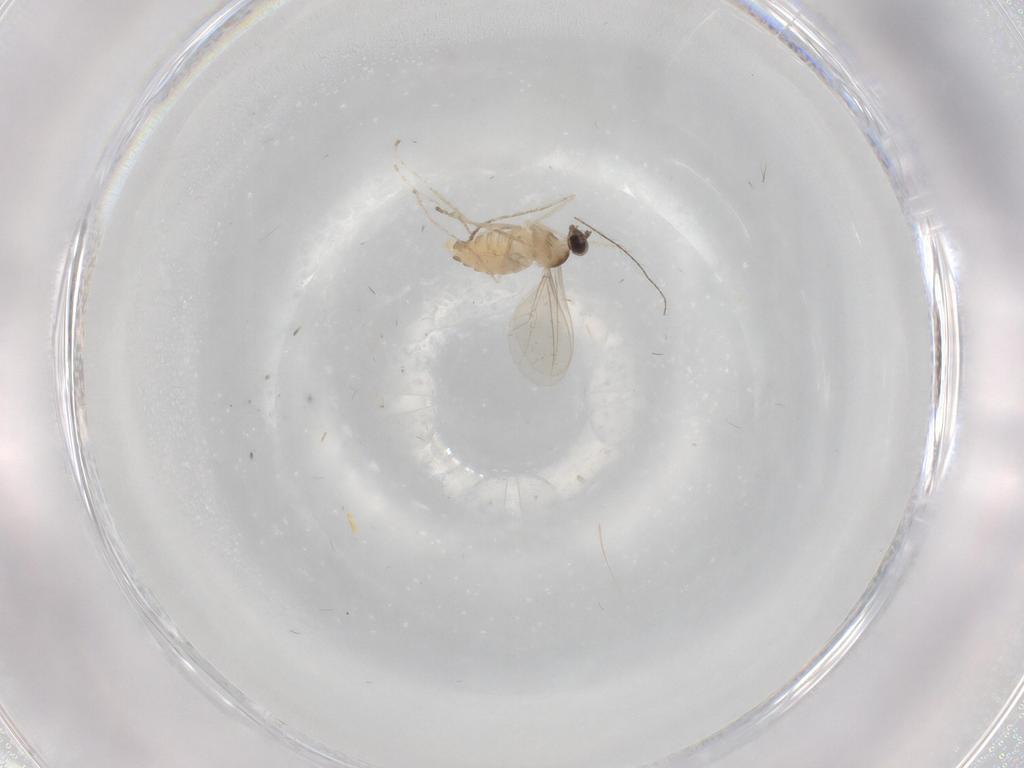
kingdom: Animalia
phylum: Arthropoda
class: Insecta
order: Diptera
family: Cecidomyiidae
